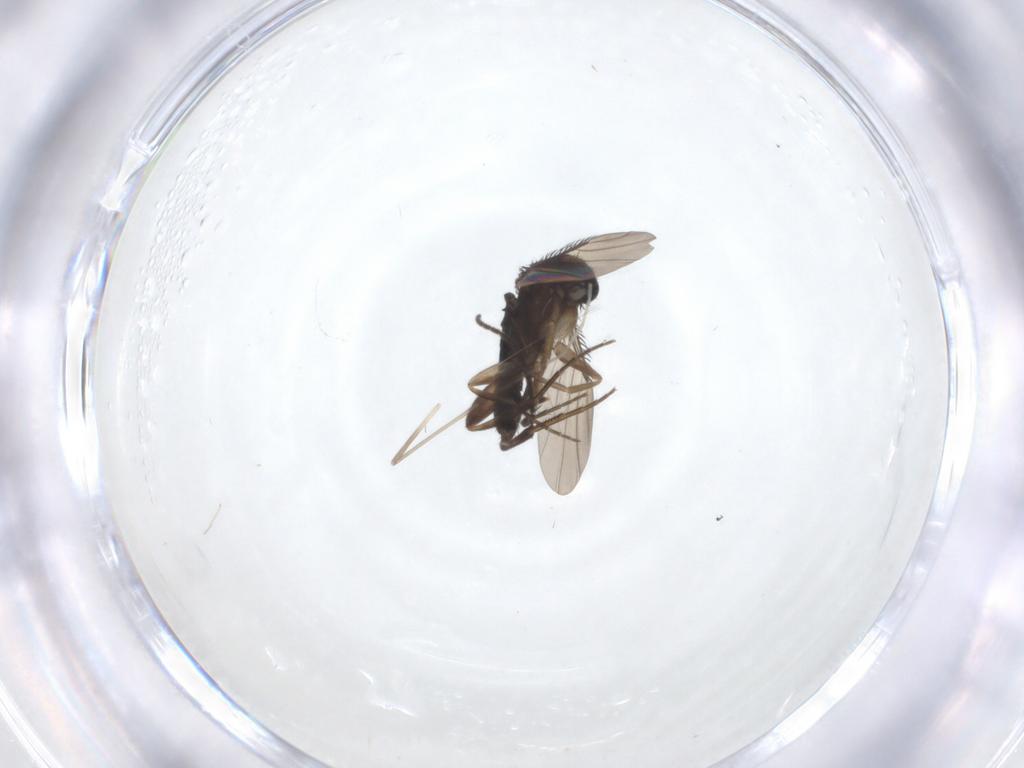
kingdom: Animalia
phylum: Arthropoda
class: Insecta
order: Diptera
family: Phoridae
